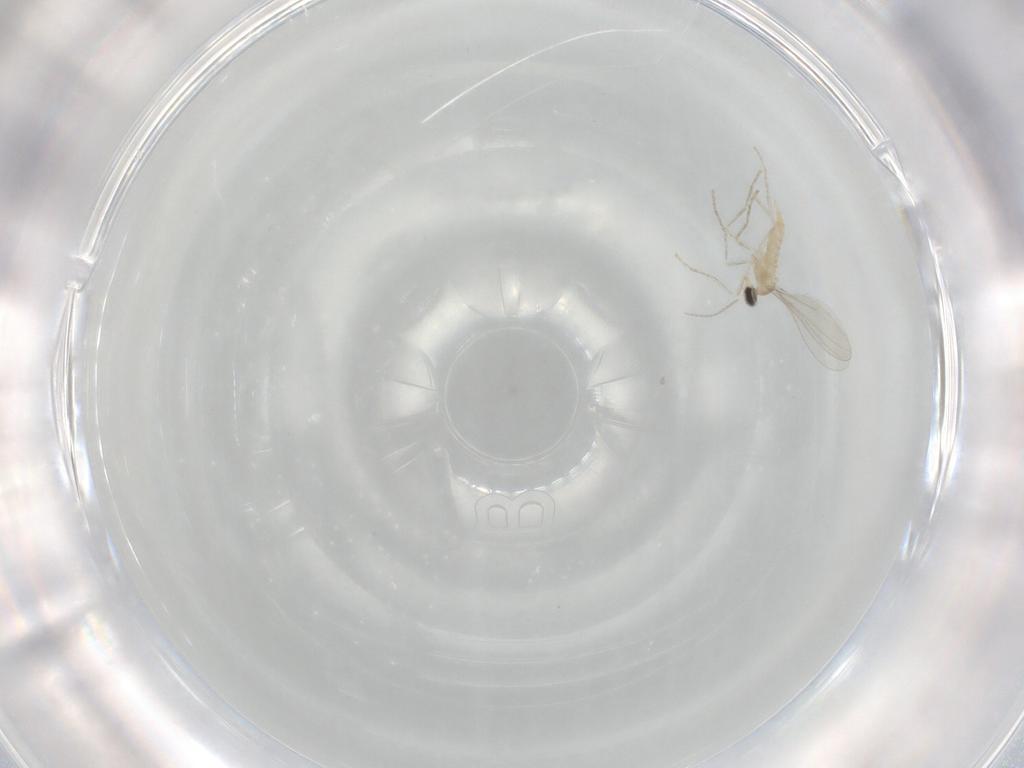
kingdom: Animalia
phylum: Arthropoda
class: Insecta
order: Diptera
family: Cecidomyiidae
